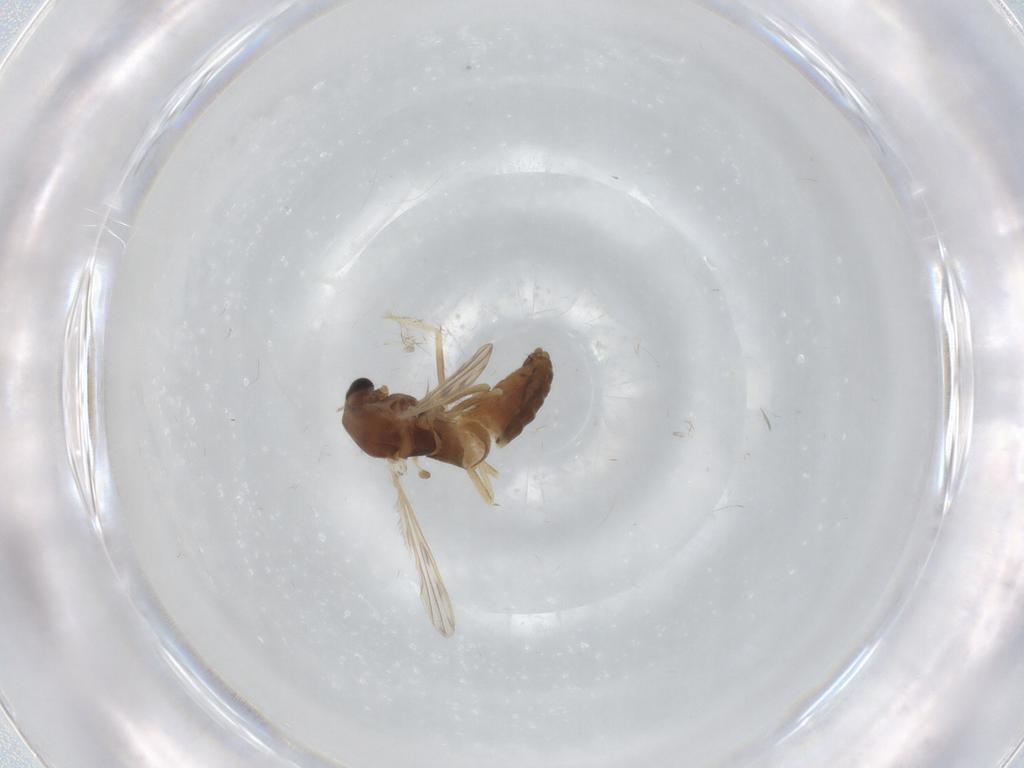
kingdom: Animalia
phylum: Arthropoda
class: Insecta
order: Diptera
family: Chironomidae
